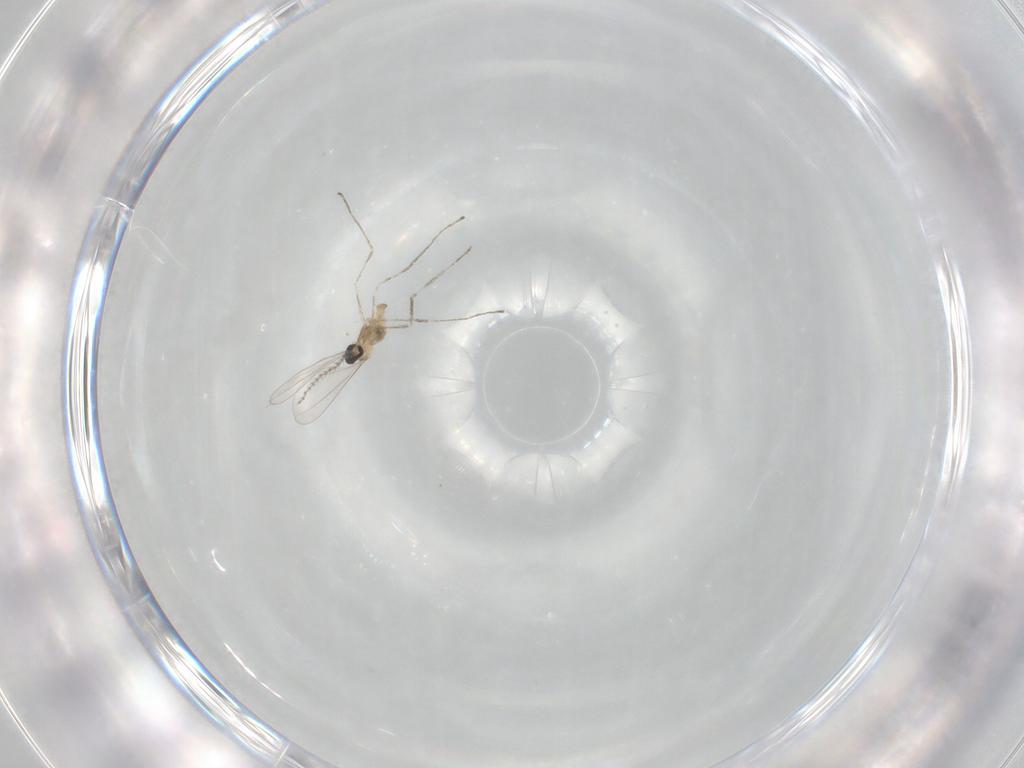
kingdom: Animalia
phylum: Arthropoda
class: Insecta
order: Diptera
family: Cecidomyiidae
